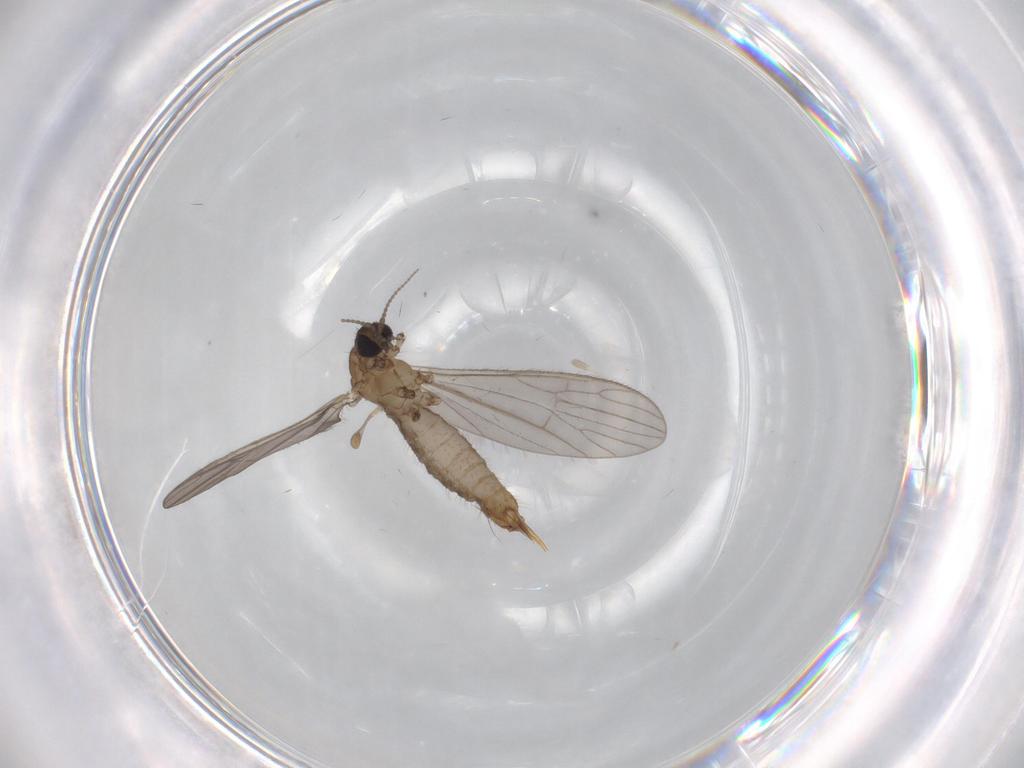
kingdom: Animalia
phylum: Arthropoda
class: Insecta
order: Diptera
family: Limoniidae
